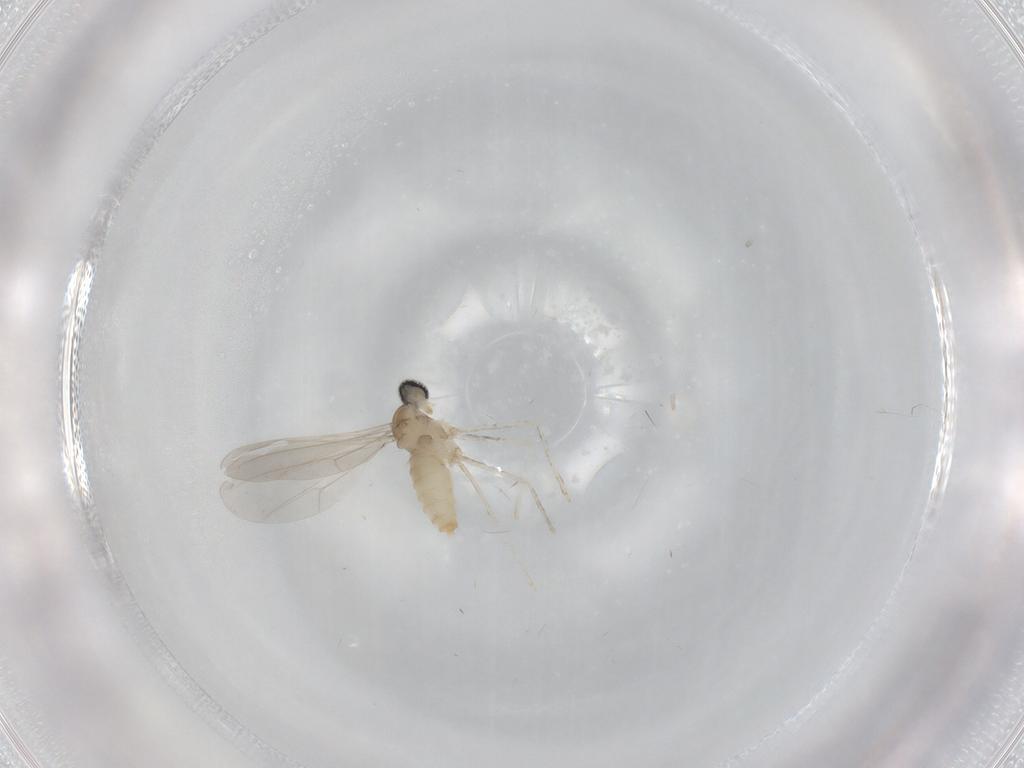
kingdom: Animalia
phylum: Arthropoda
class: Insecta
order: Diptera
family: Cecidomyiidae
